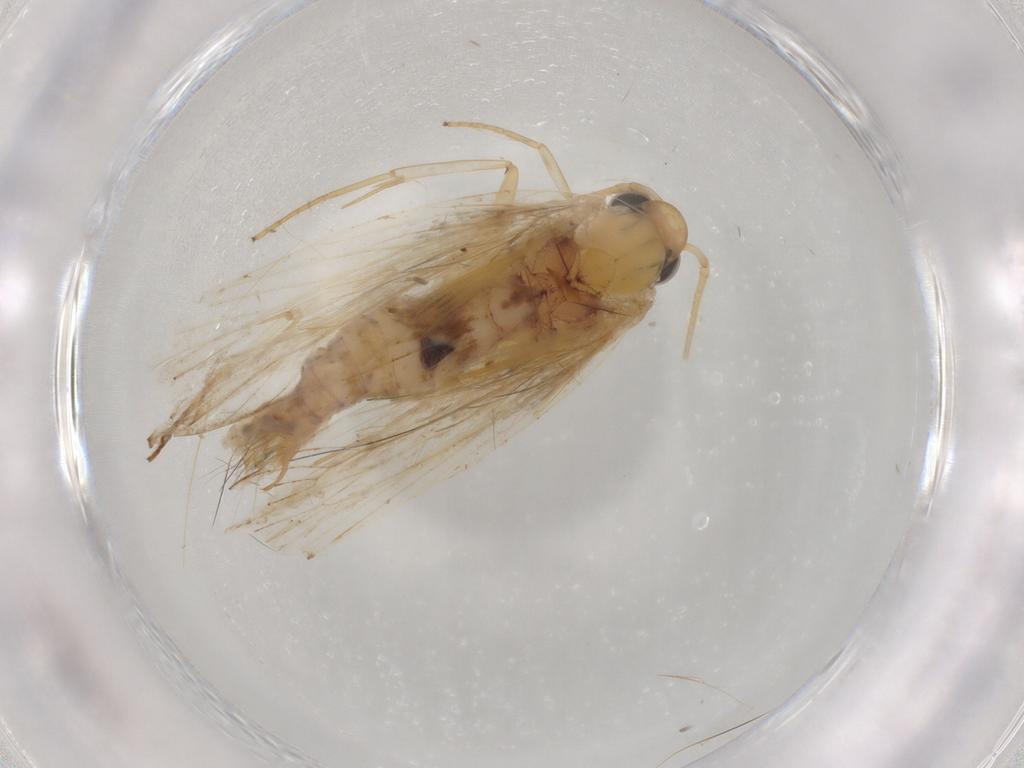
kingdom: Animalia
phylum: Arthropoda
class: Insecta
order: Lepidoptera
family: Depressariidae
